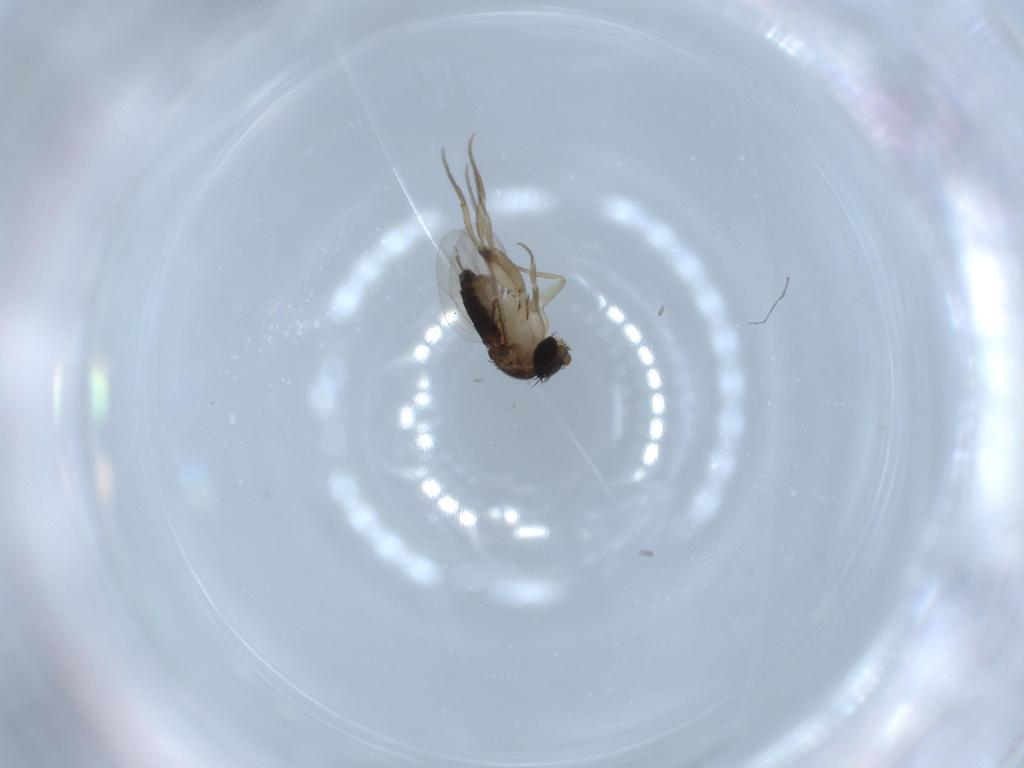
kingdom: Animalia
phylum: Arthropoda
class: Insecta
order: Diptera
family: Phoridae
